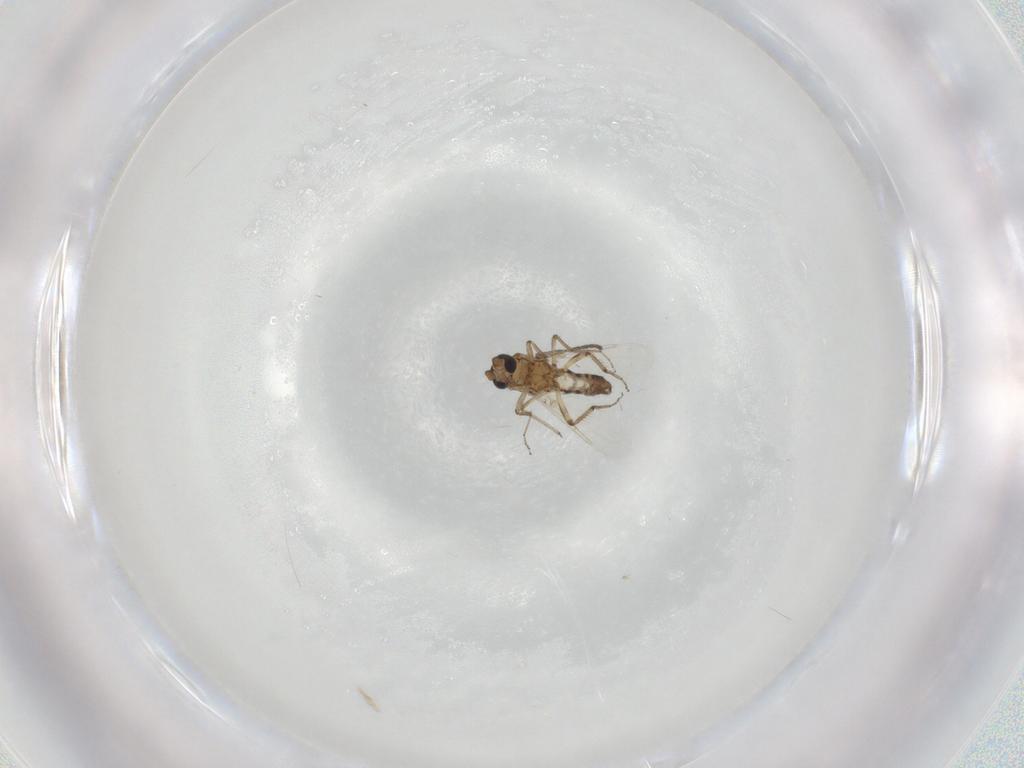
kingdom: Animalia
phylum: Arthropoda
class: Insecta
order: Diptera
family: Ceratopogonidae
